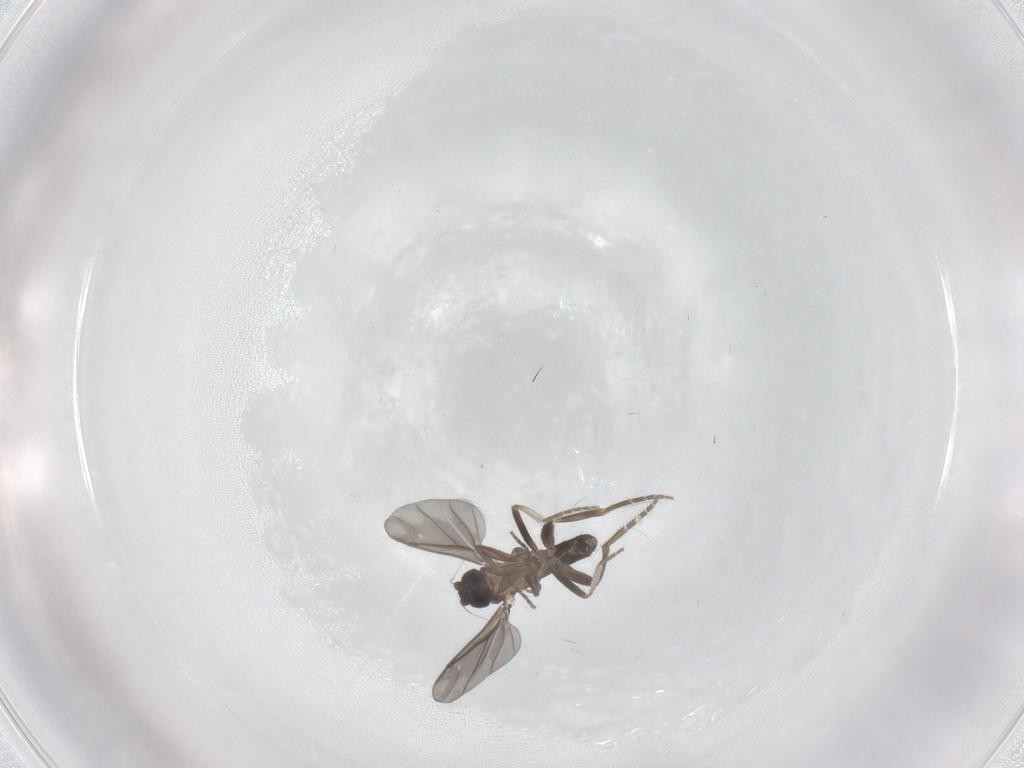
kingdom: Animalia
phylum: Arthropoda
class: Insecta
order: Diptera
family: Chironomidae
